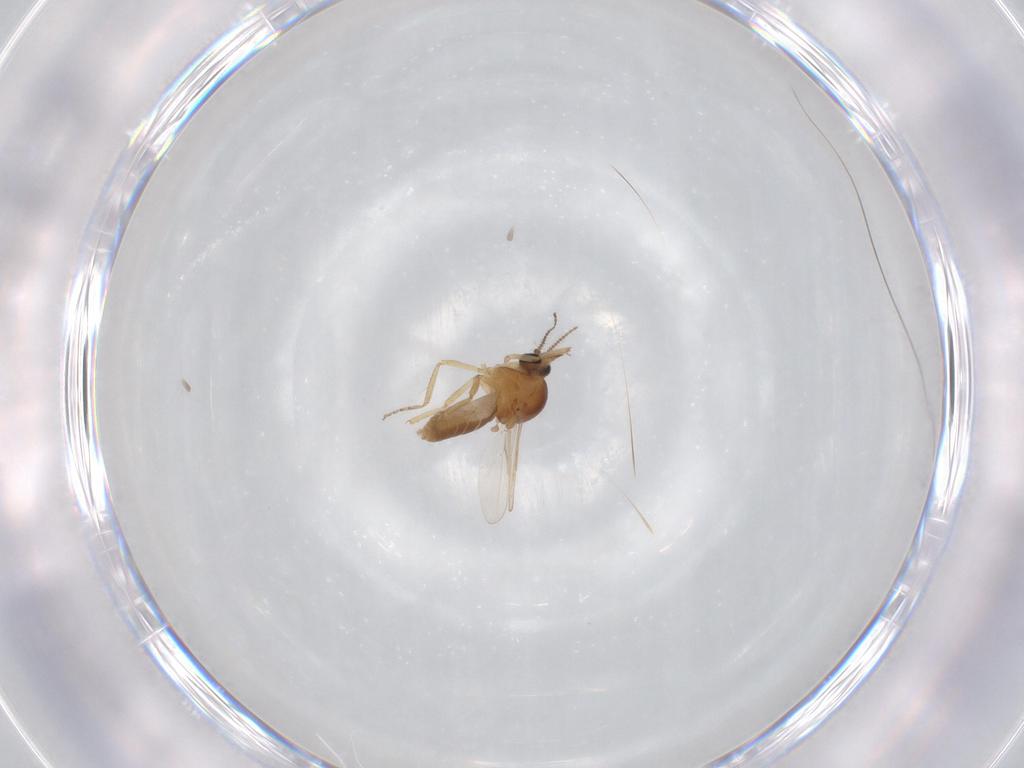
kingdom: Animalia
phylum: Arthropoda
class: Insecta
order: Diptera
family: Ceratopogonidae
